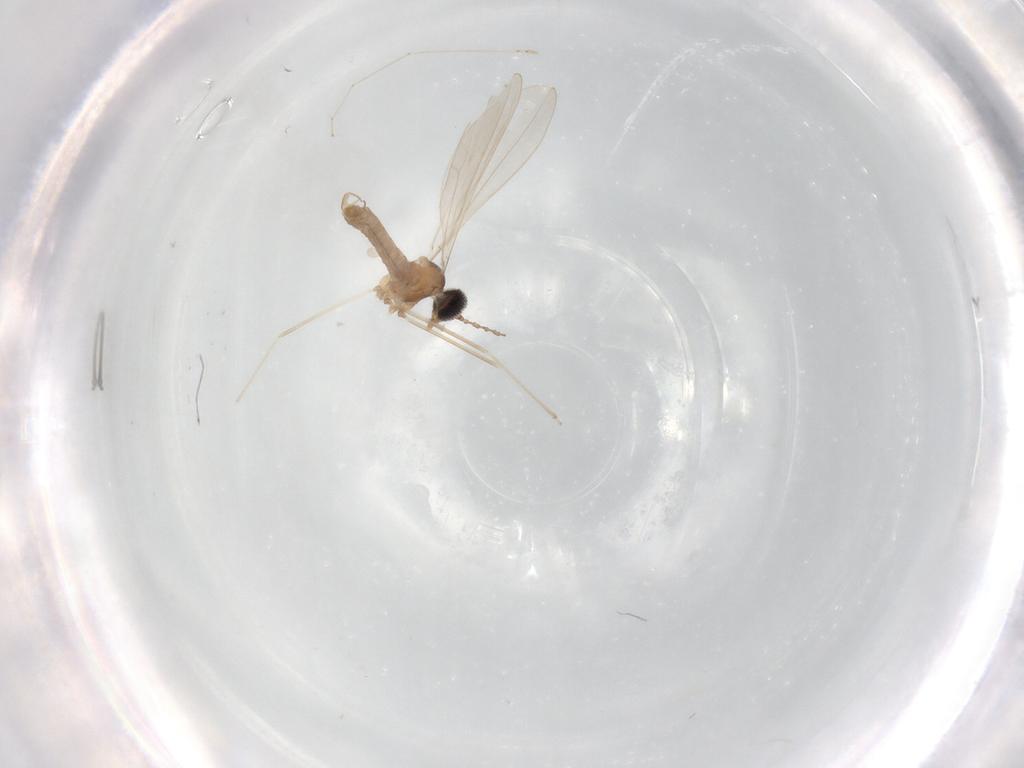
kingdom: Animalia
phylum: Arthropoda
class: Insecta
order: Diptera
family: Cecidomyiidae
